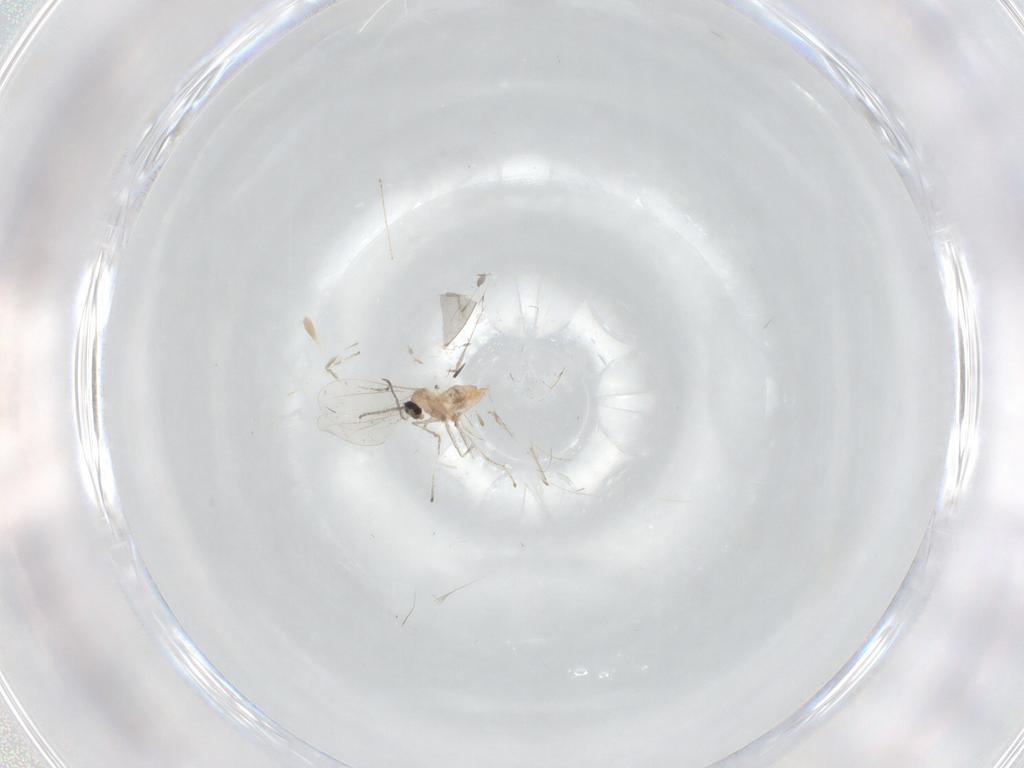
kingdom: Animalia
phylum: Arthropoda
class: Insecta
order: Diptera
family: Cecidomyiidae
